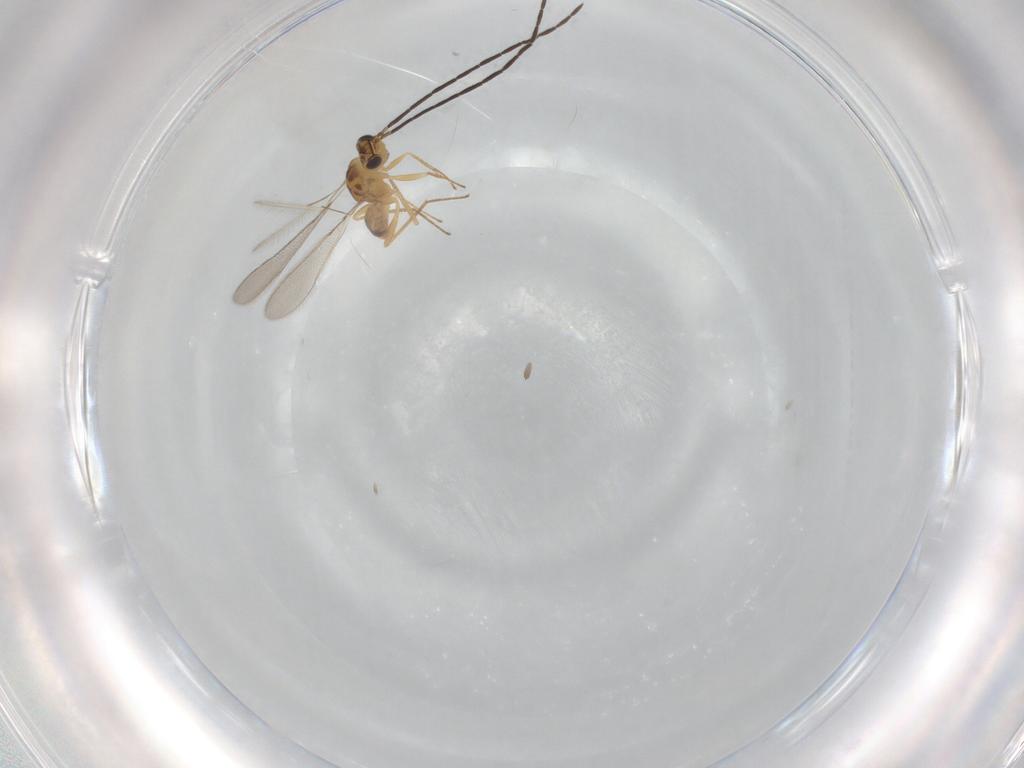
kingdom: Animalia
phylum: Arthropoda
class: Insecta
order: Hymenoptera
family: Mymaridae
